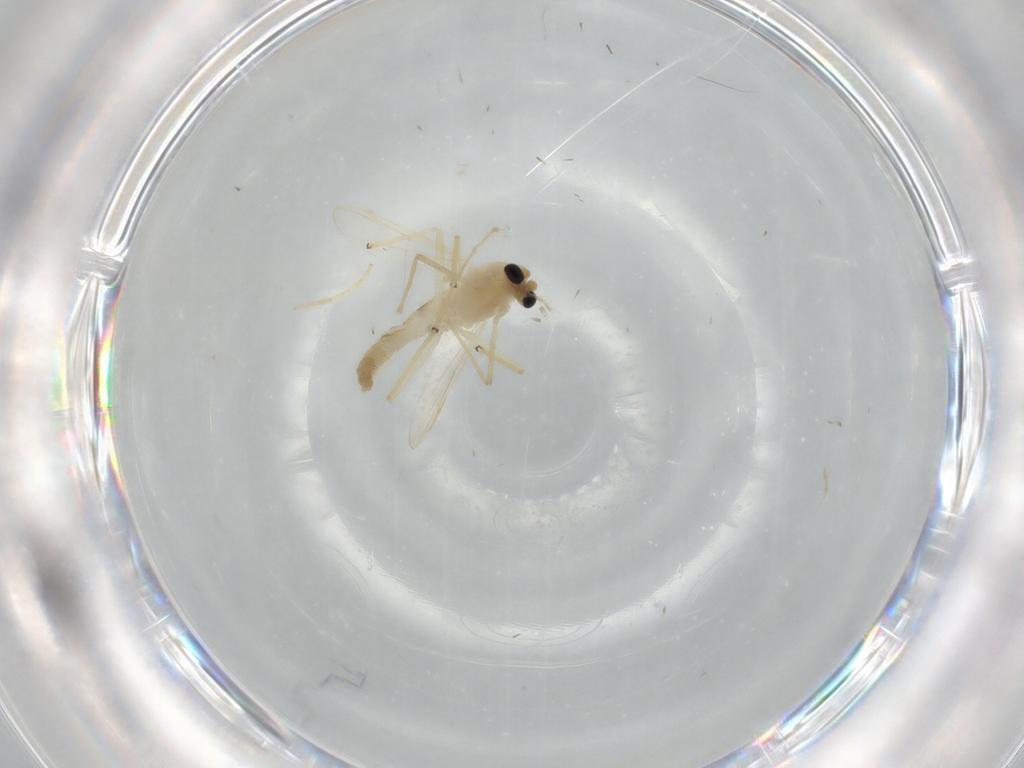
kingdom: Animalia
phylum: Arthropoda
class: Insecta
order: Diptera
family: Chironomidae
